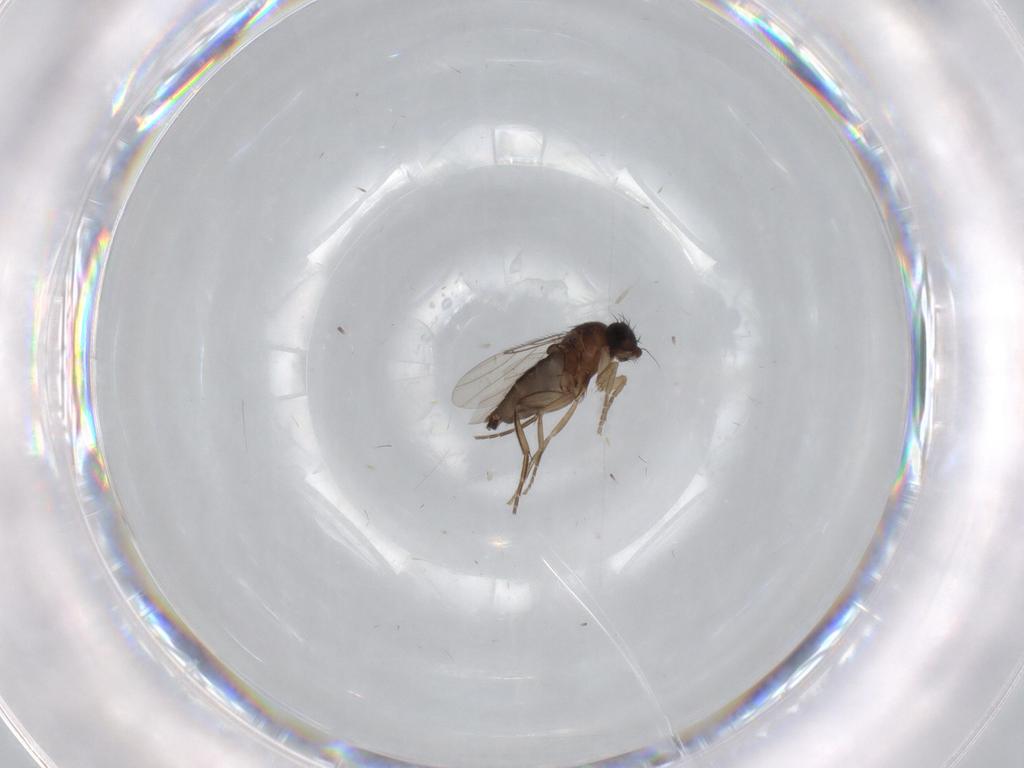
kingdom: Animalia
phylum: Arthropoda
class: Insecta
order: Diptera
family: Phoridae
